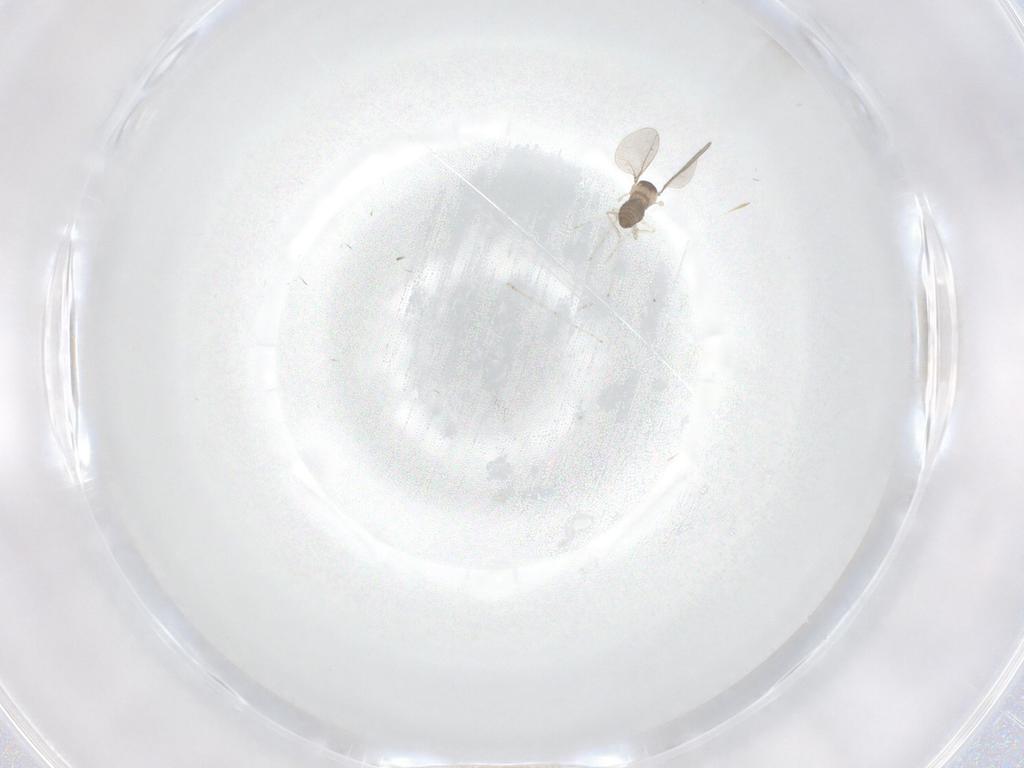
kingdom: Animalia
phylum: Arthropoda
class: Insecta
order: Diptera
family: Cecidomyiidae
